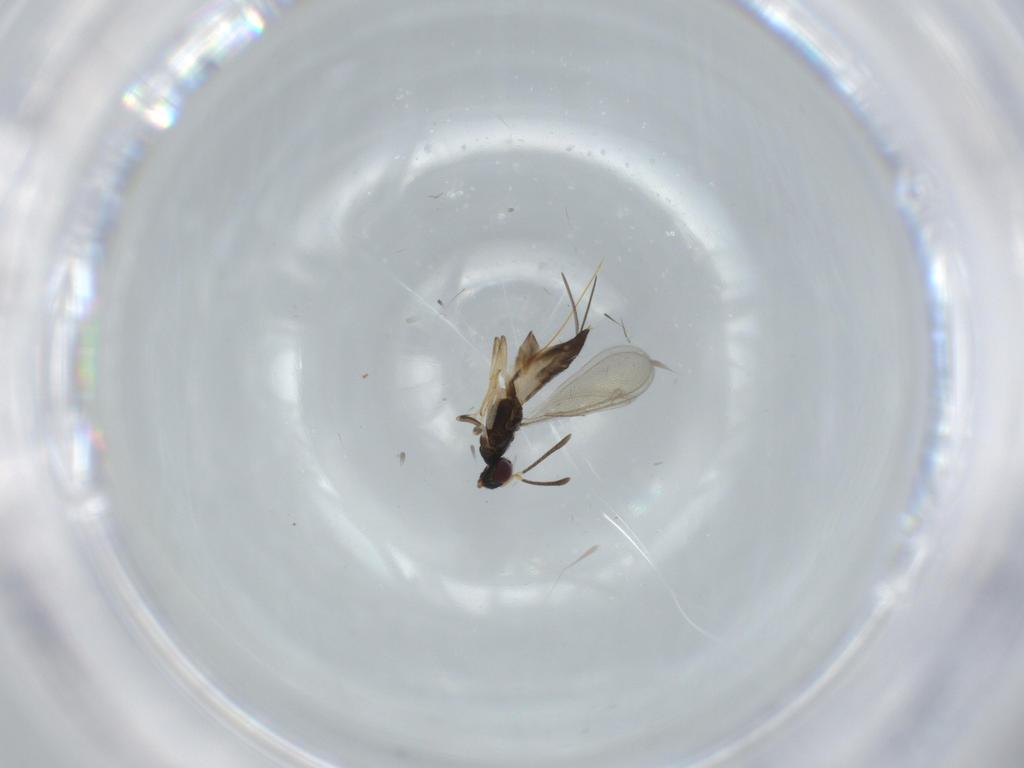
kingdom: Animalia
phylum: Arthropoda
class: Insecta
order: Hymenoptera
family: Eupelmidae
